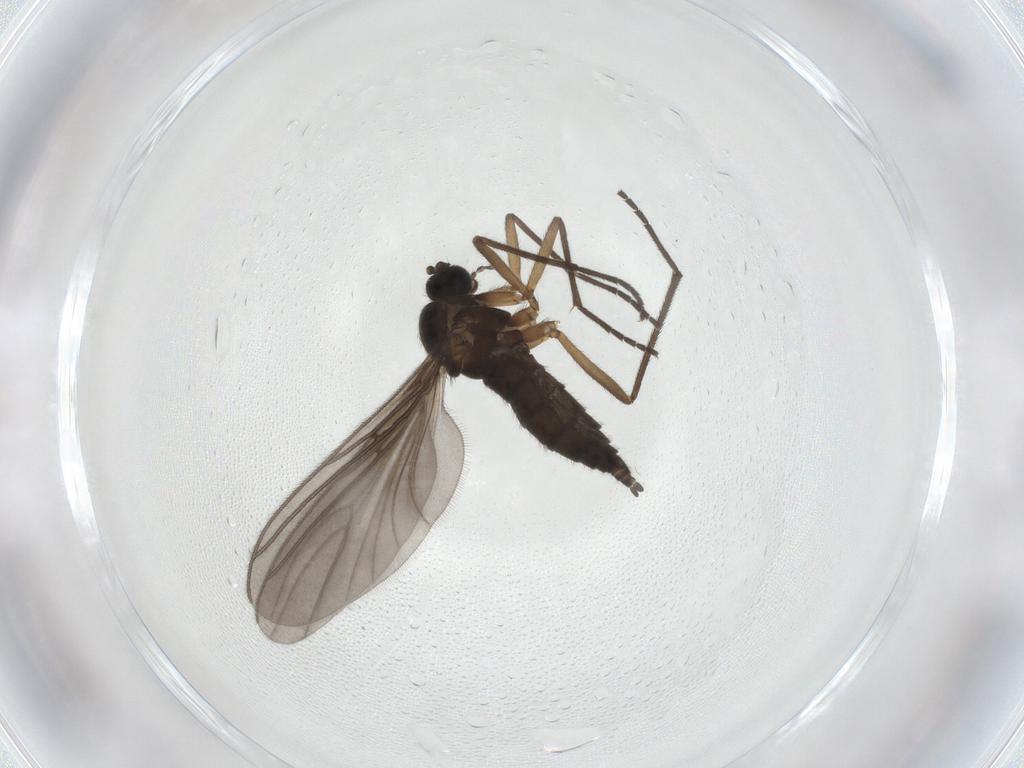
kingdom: Animalia
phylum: Arthropoda
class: Insecta
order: Diptera
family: Sciaridae
